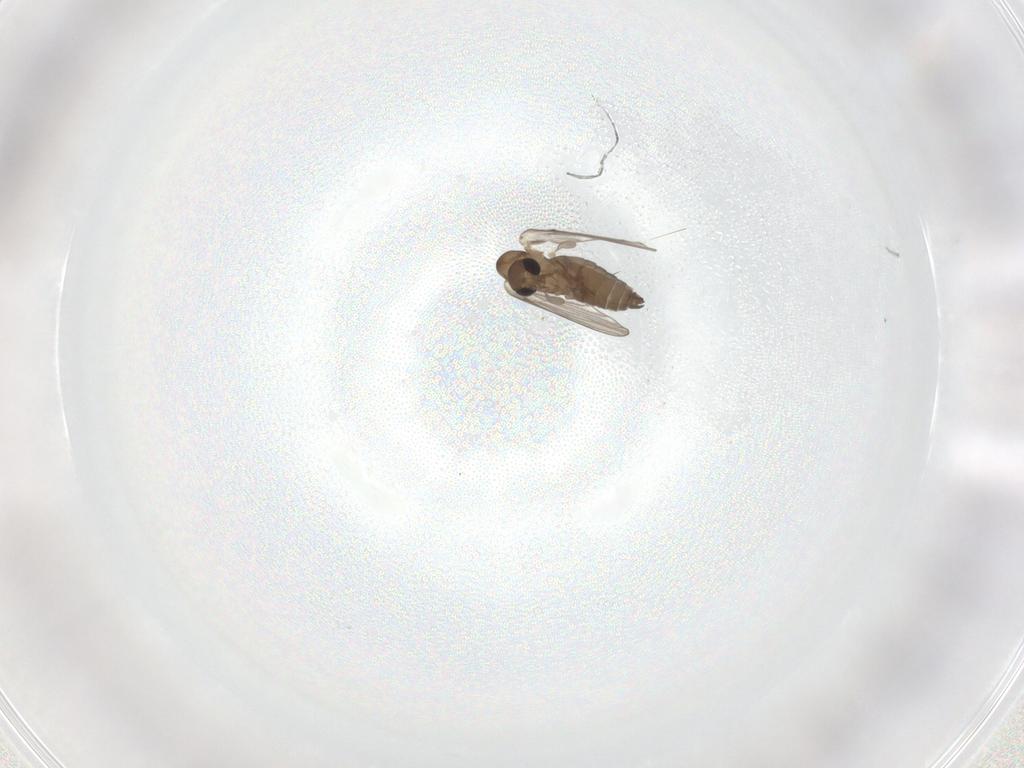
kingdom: Animalia
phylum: Arthropoda
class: Insecta
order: Diptera
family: Psychodidae
